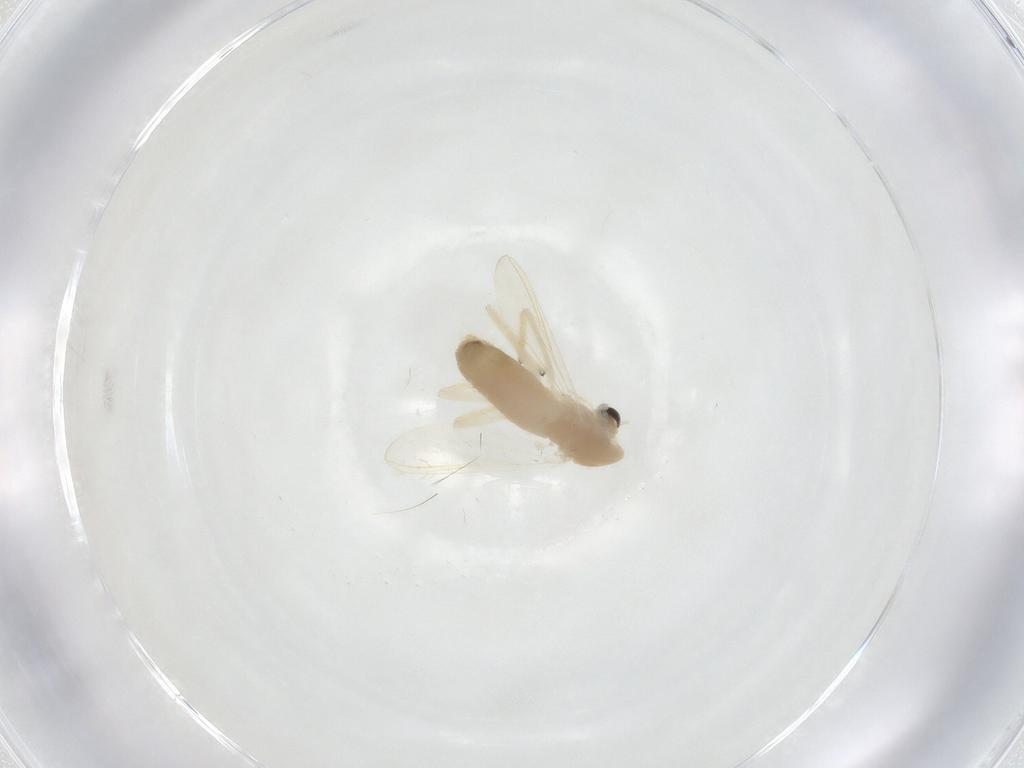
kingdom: Animalia
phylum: Arthropoda
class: Insecta
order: Diptera
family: Chironomidae
